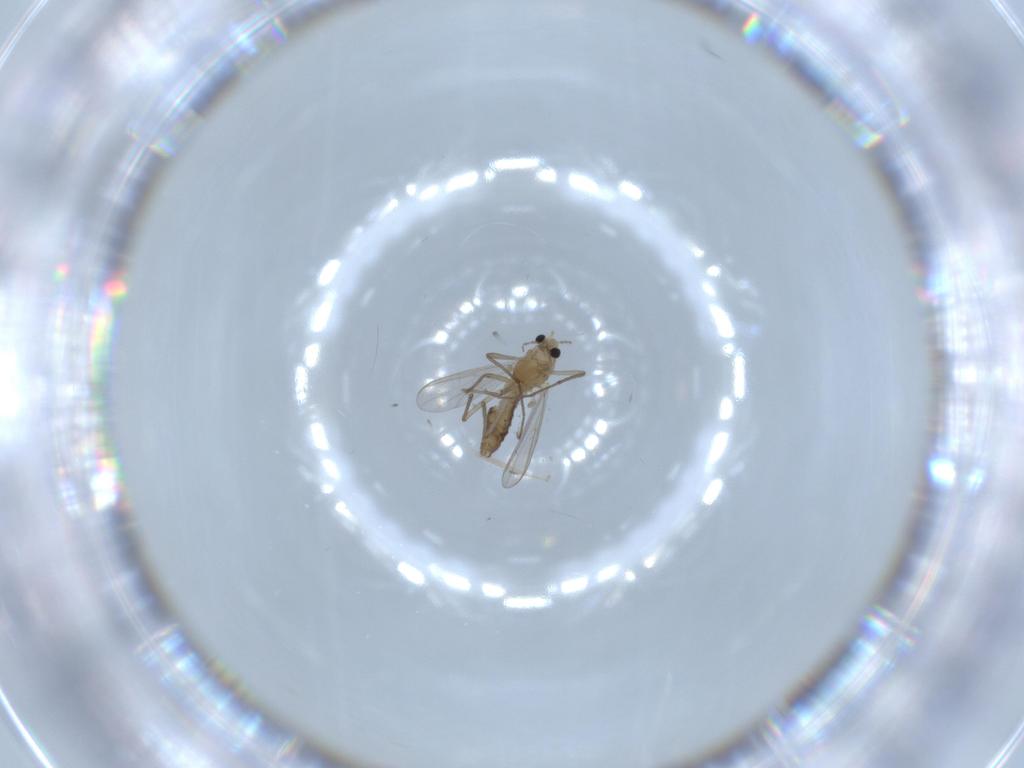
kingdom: Animalia
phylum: Arthropoda
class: Insecta
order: Diptera
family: Chironomidae
